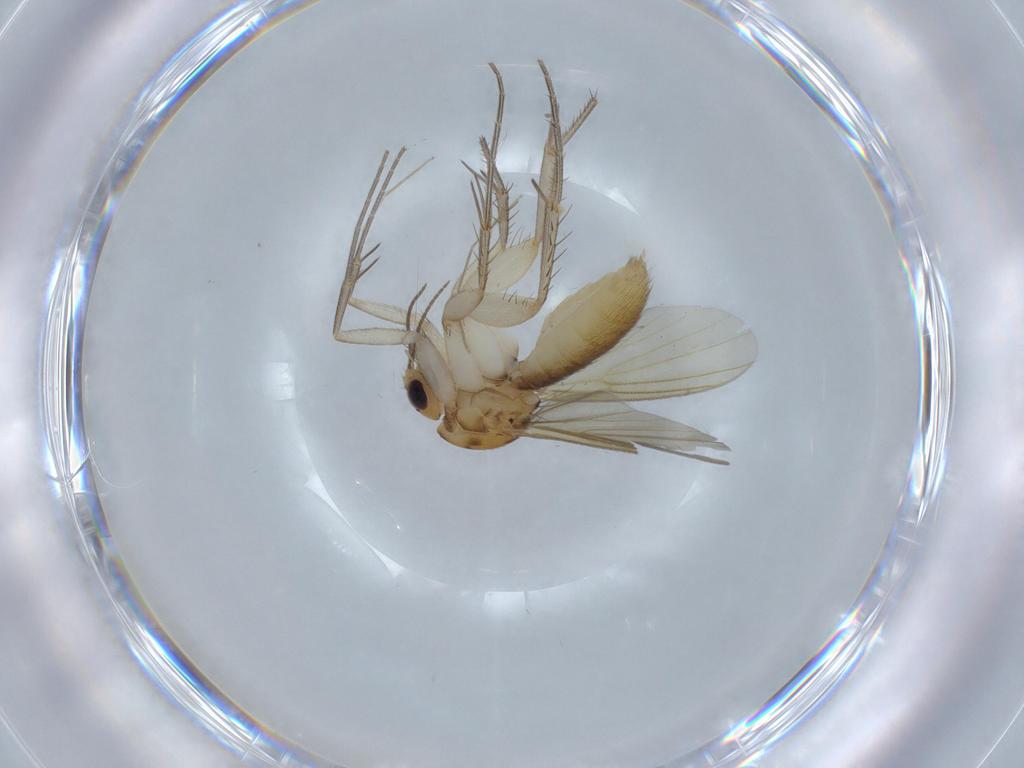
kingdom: Animalia
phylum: Arthropoda
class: Insecta
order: Diptera
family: Mycetophilidae
